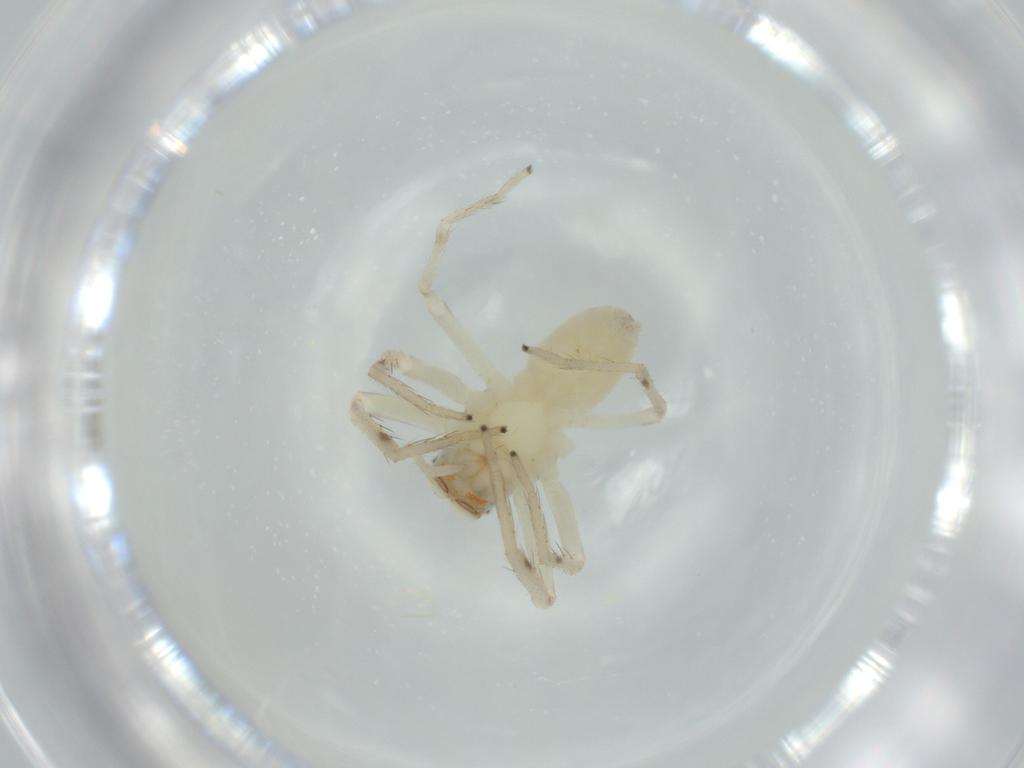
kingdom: Animalia
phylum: Arthropoda
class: Arachnida
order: Araneae
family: Salticidae
